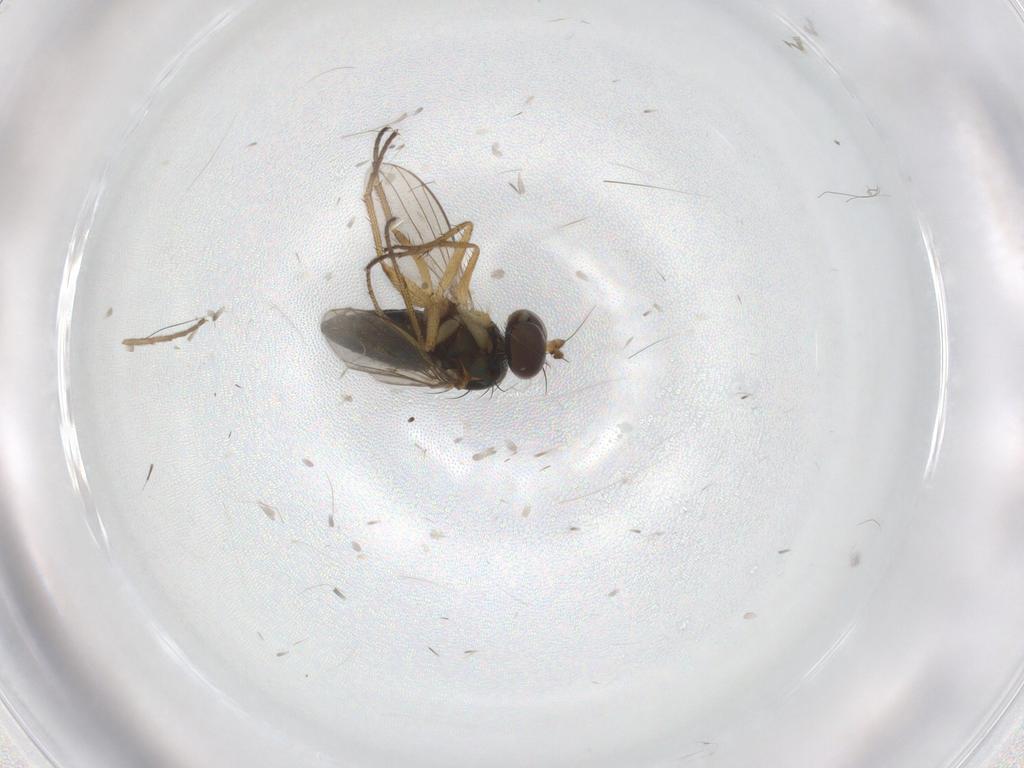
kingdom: Animalia
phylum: Arthropoda
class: Insecta
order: Diptera
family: Chironomidae
